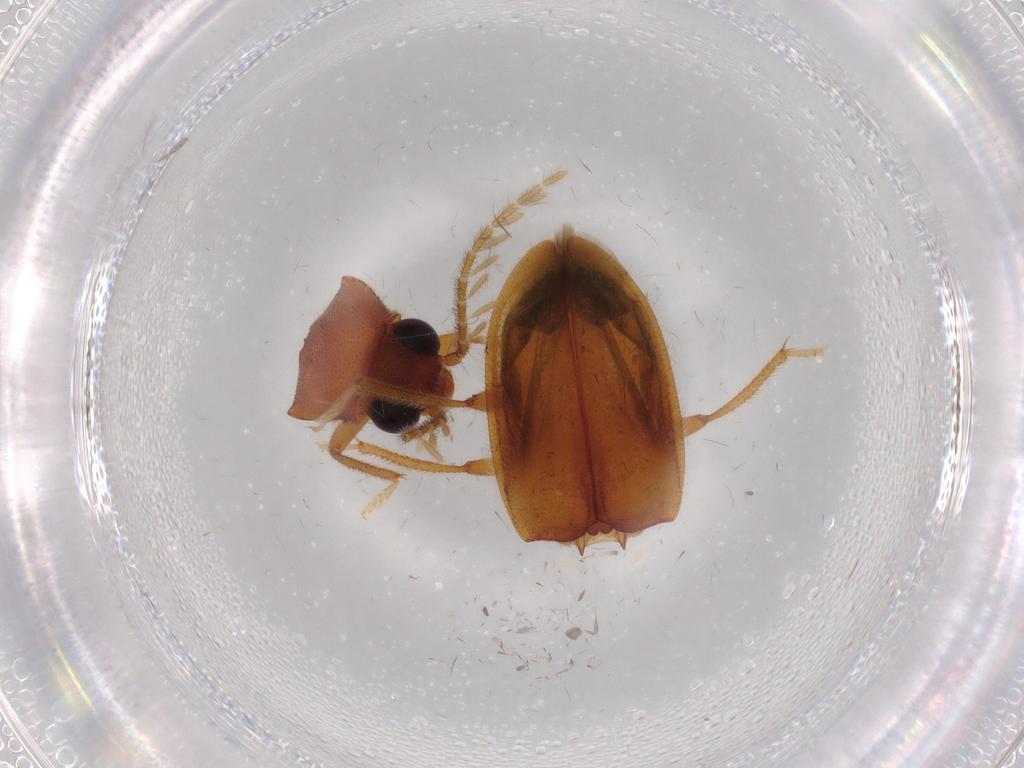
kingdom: Animalia
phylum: Arthropoda
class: Insecta
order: Coleoptera
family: Ptilodactylidae
